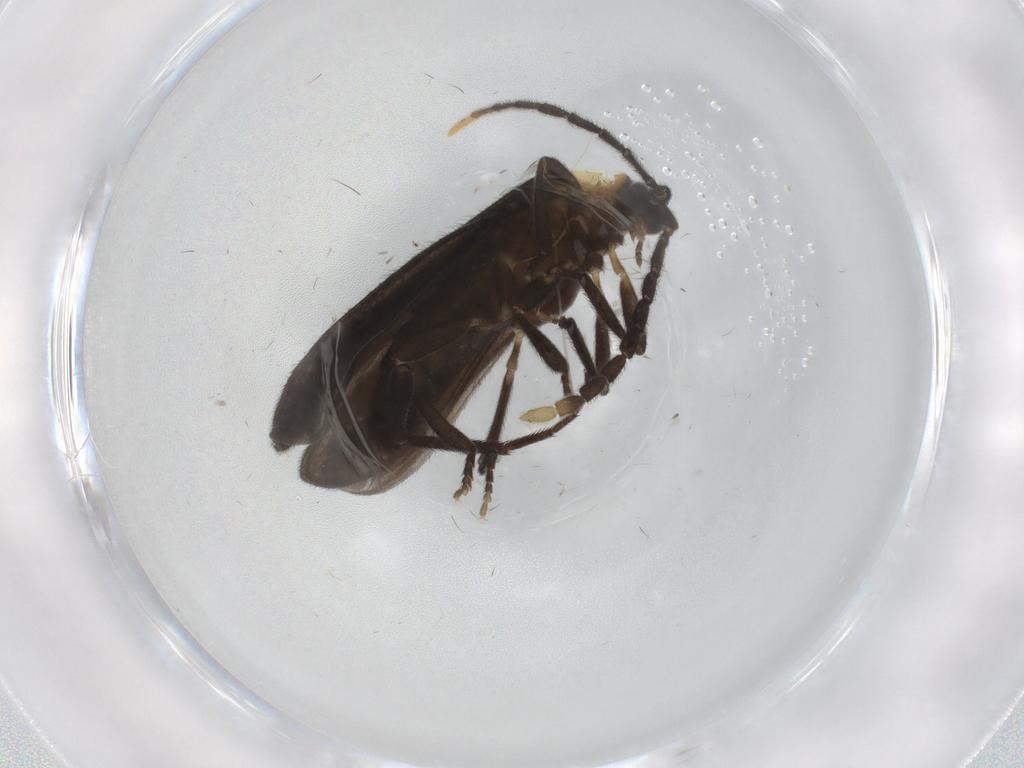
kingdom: Animalia
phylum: Arthropoda
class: Insecta
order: Coleoptera
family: Lycidae
